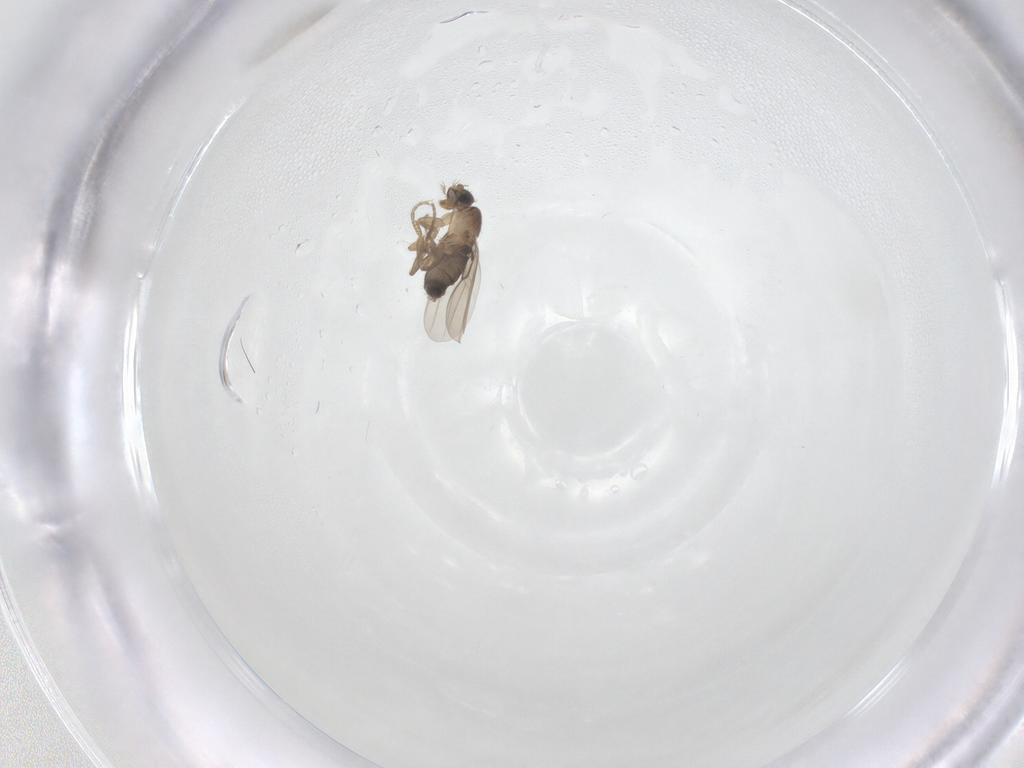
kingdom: Animalia
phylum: Arthropoda
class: Insecta
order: Diptera
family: Phoridae
